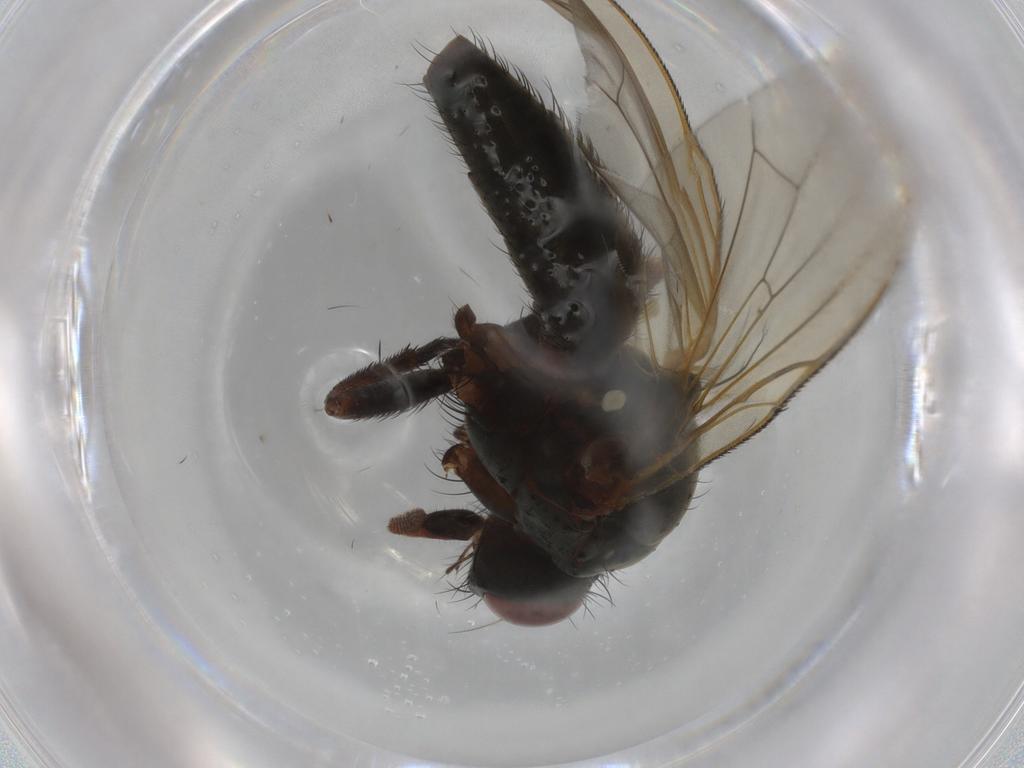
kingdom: Animalia
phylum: Arthropoda
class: Insecta
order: Diptera
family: Anthomyiidae
